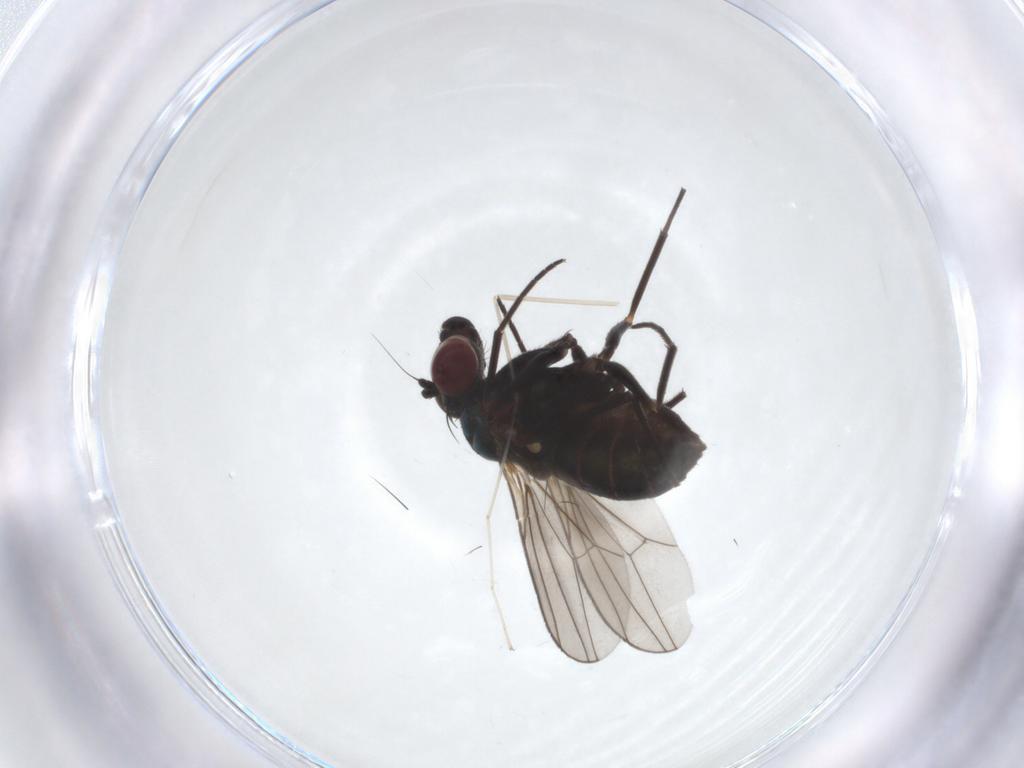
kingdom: Animalia
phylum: Arthropoda
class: Insecta
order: Diptera
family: Ceratopogonidae
